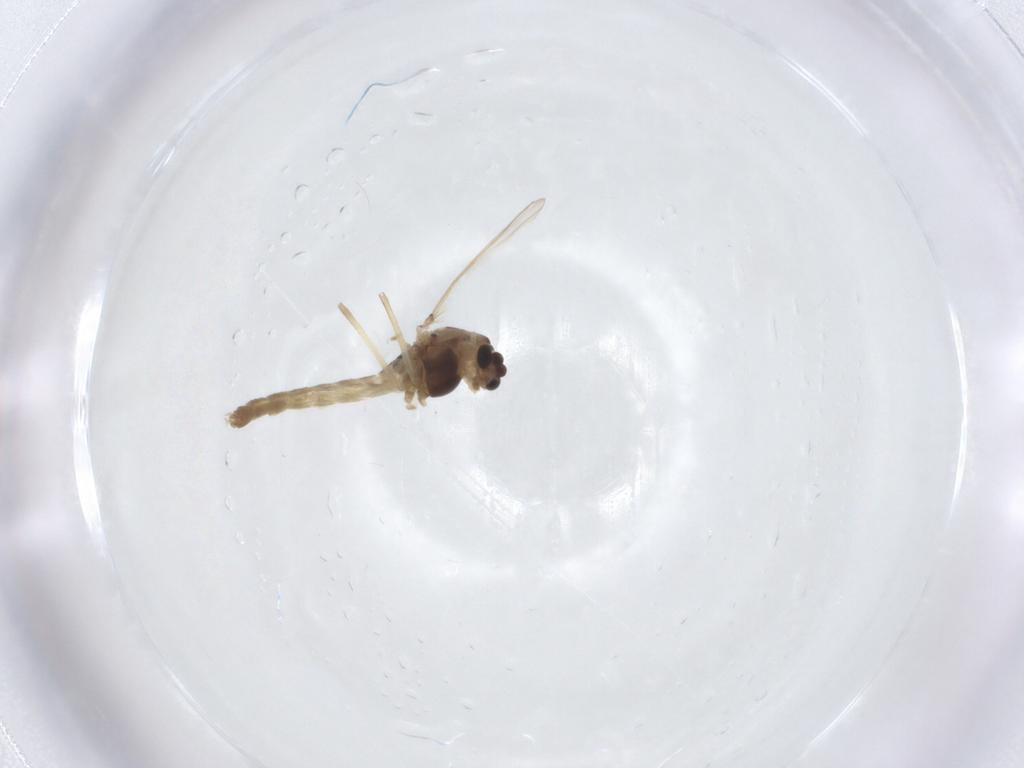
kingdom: Animalia
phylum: Arthropoda
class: Insecta
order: Diptera
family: Chironomidae
